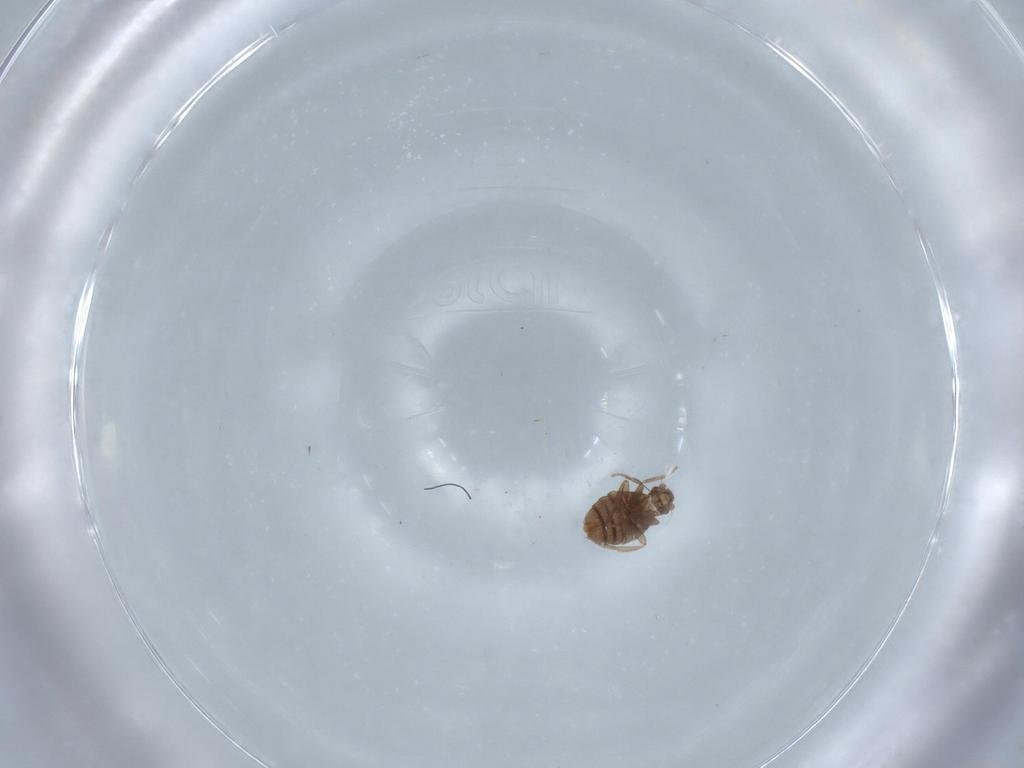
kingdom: Animalia
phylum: Arthropoda
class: Insecta
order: Diptera
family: Phoridae
